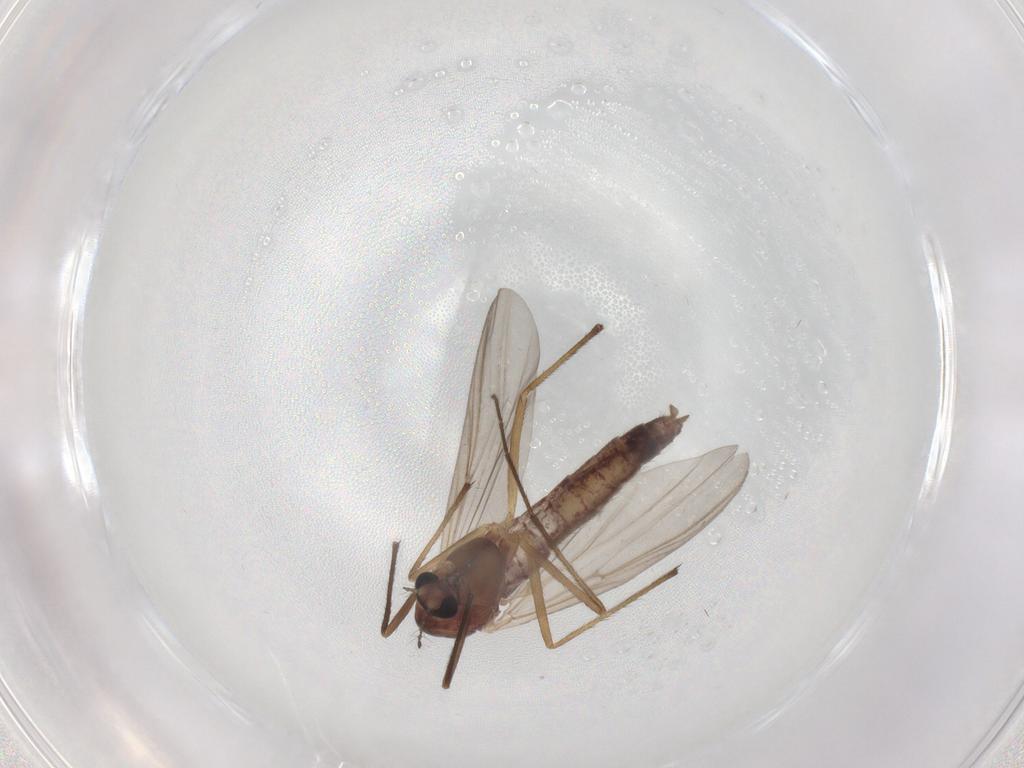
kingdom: Animalia
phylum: Arthropoda
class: Insecta
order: Diptera
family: Chironomidae
